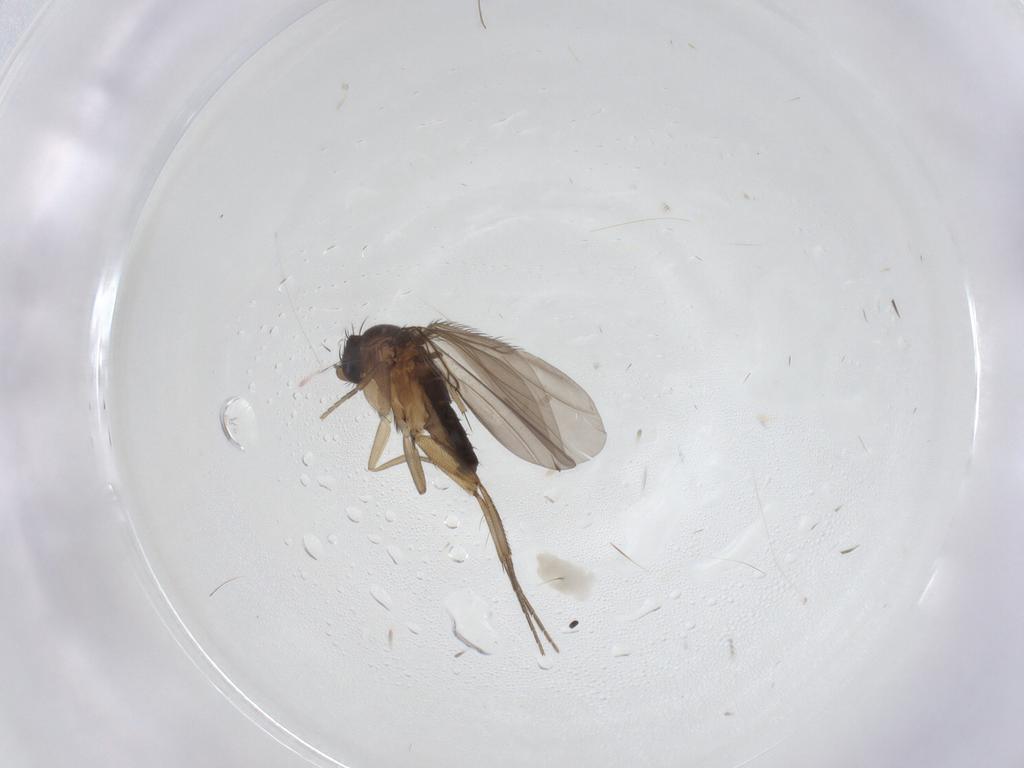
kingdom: Animalia
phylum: Arthropoda
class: Insecta
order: Diptera
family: Phoridae
